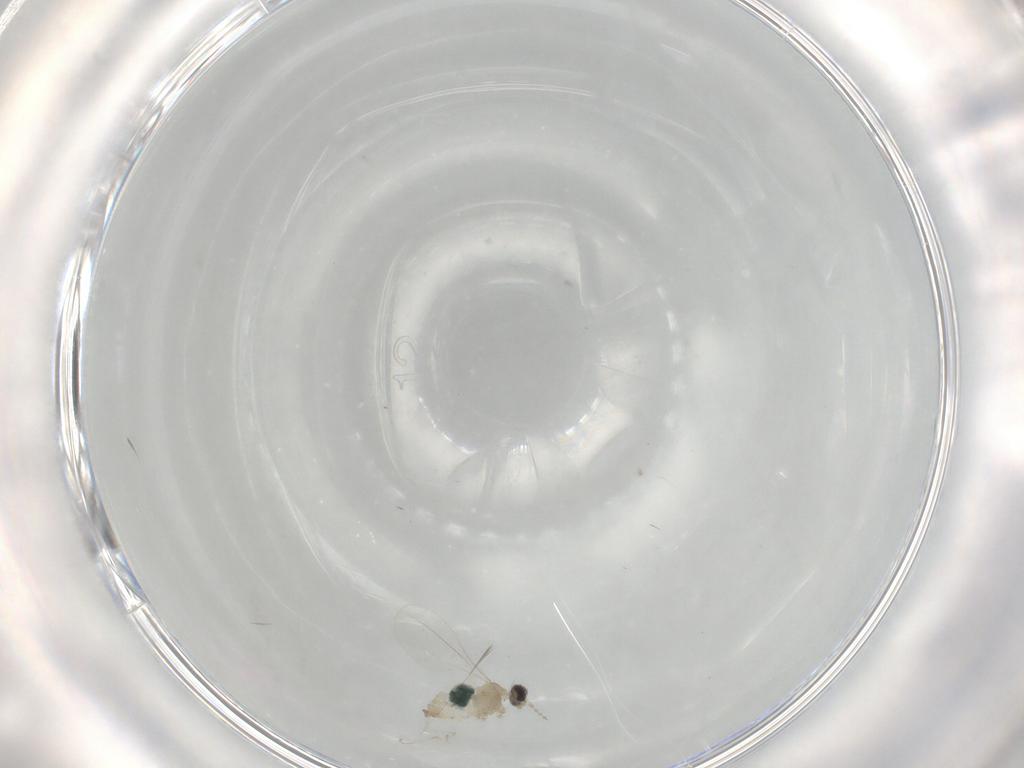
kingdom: Animalia
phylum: Arthropoda
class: Insecta
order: Diptera
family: Cecidomyiidae
